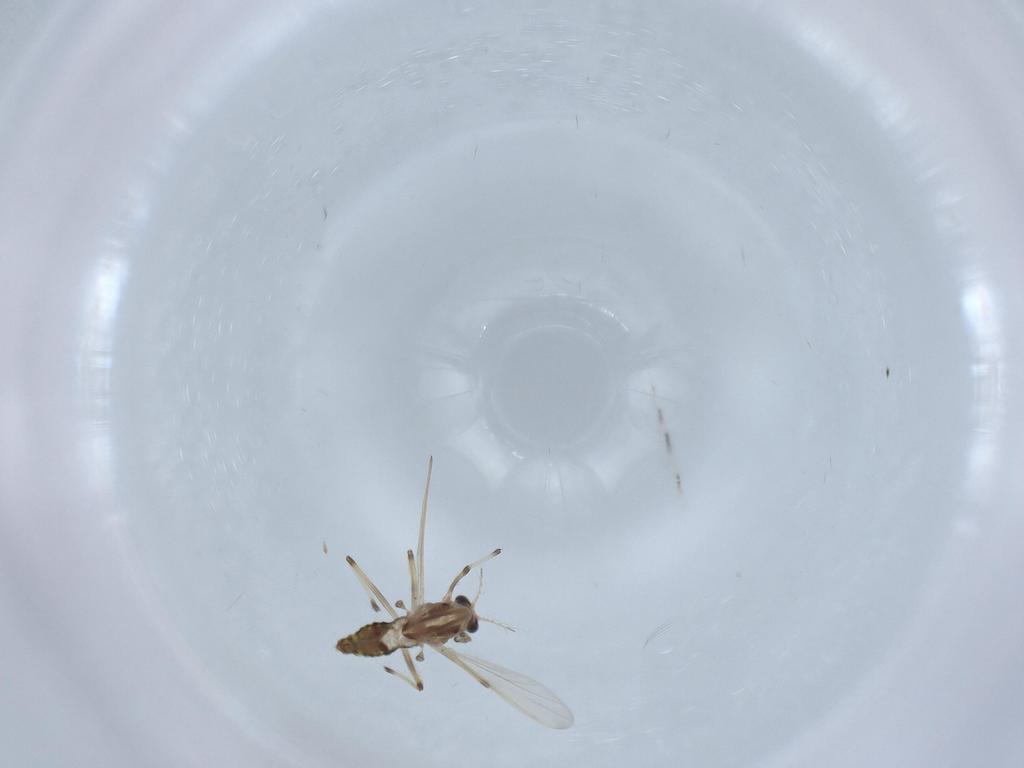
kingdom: Animalia
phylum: Arthropoda
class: Insecta
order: Diptera
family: Chironomidae
